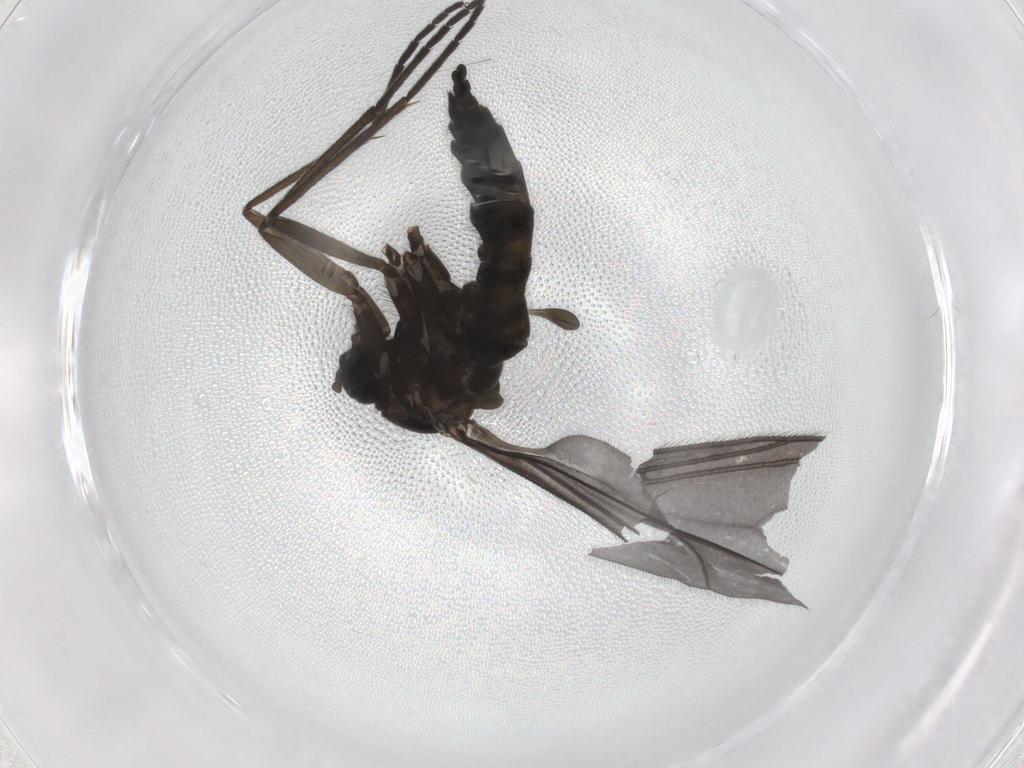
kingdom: Animalia
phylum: Arthropoda
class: Insecta
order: Diptera
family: Sciaridae
